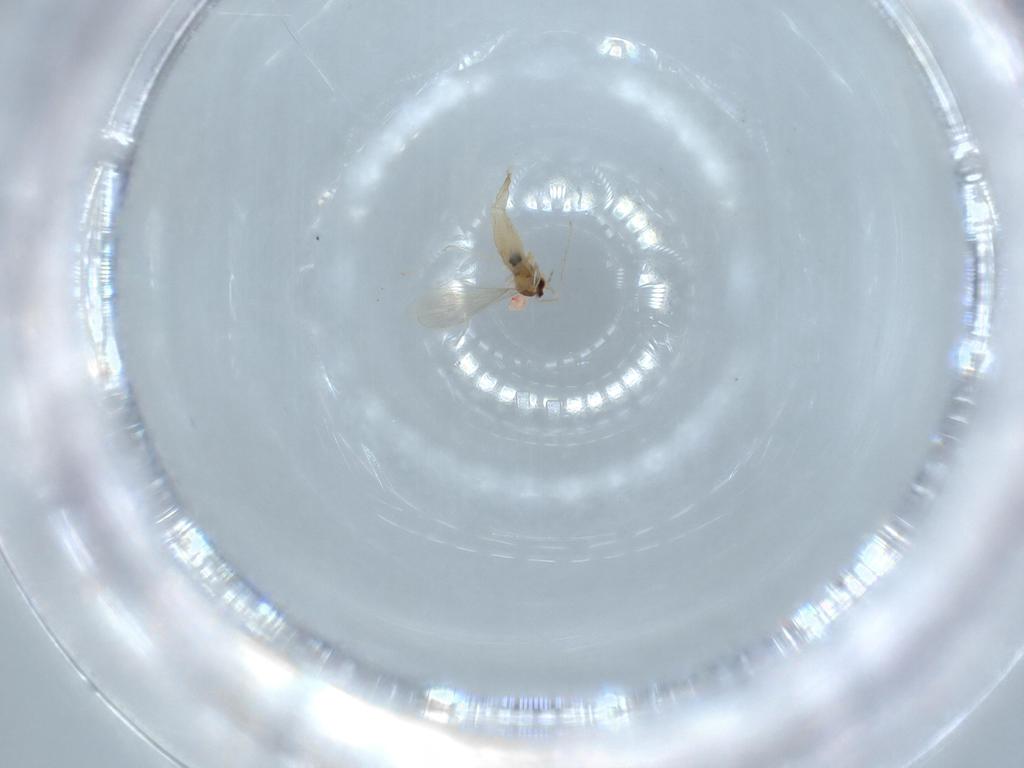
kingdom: Animalia
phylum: Arthropoda
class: Insecta
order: Diptera
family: Cecidomyiidae
